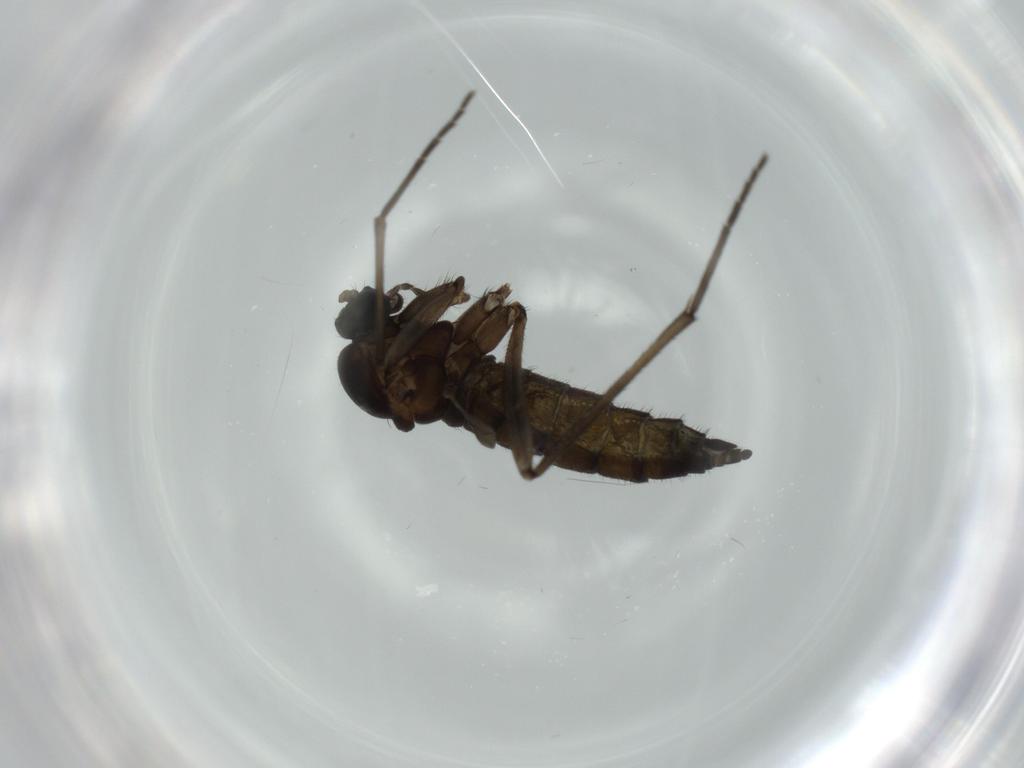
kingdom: Animalia
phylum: Arthropoda
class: Insecta
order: Diptera
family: Sciaridae
